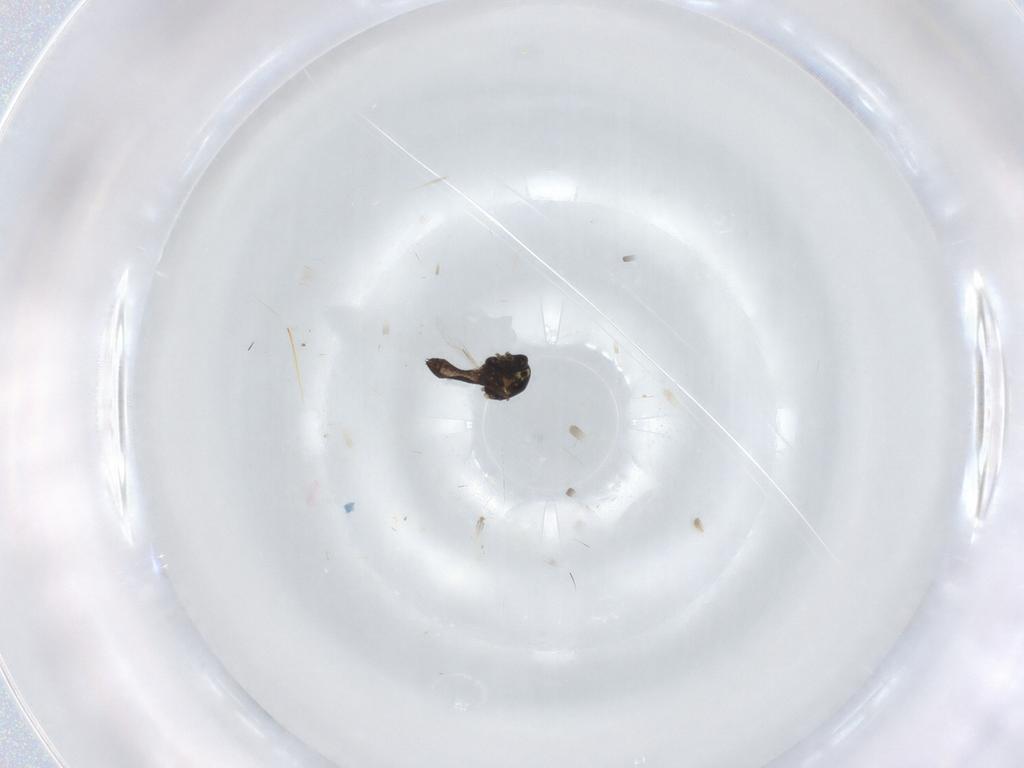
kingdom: Animalia
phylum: Arthropoda
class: Insecta
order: Diptera
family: Ceratopogonidae
